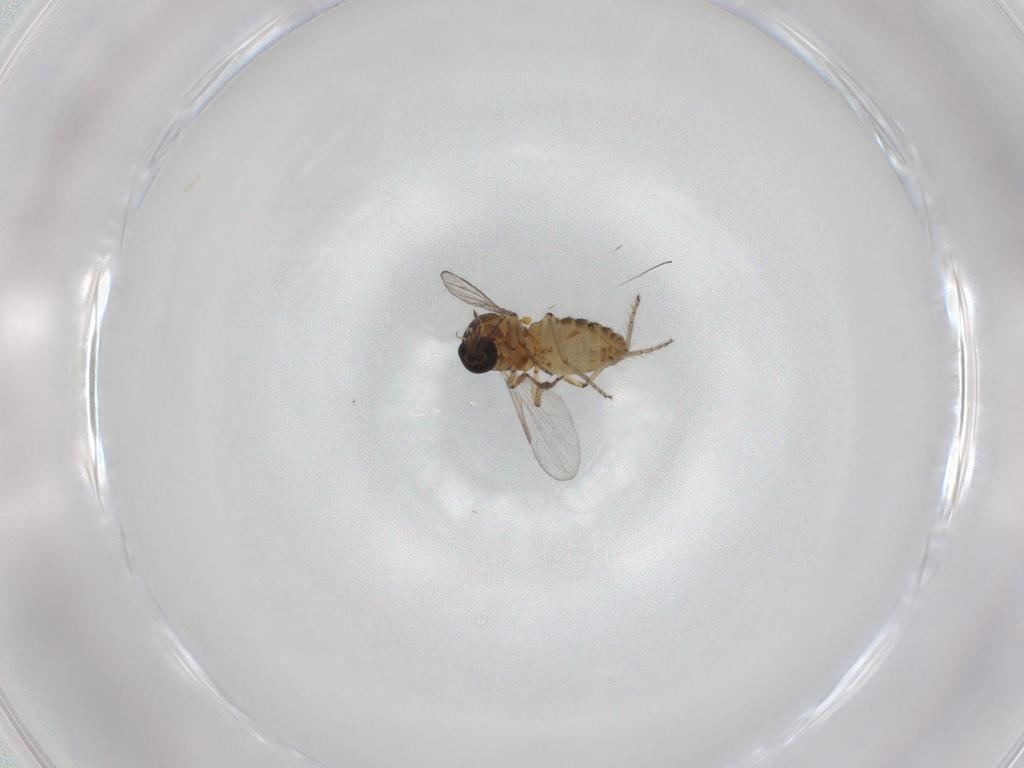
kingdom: Animalia
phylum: Arthropoda
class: Insecta
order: Diptera
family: Ceratopogonidae
